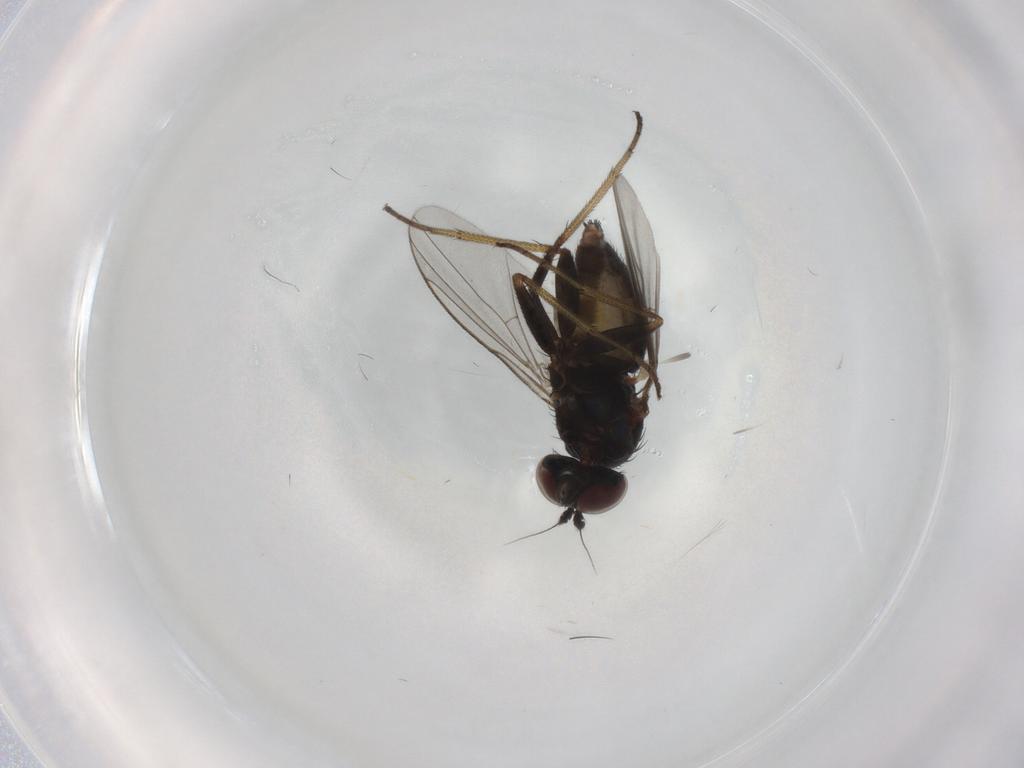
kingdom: Animalia
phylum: Arthropoda
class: Insecta
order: Diptera
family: Dolichopodidae
